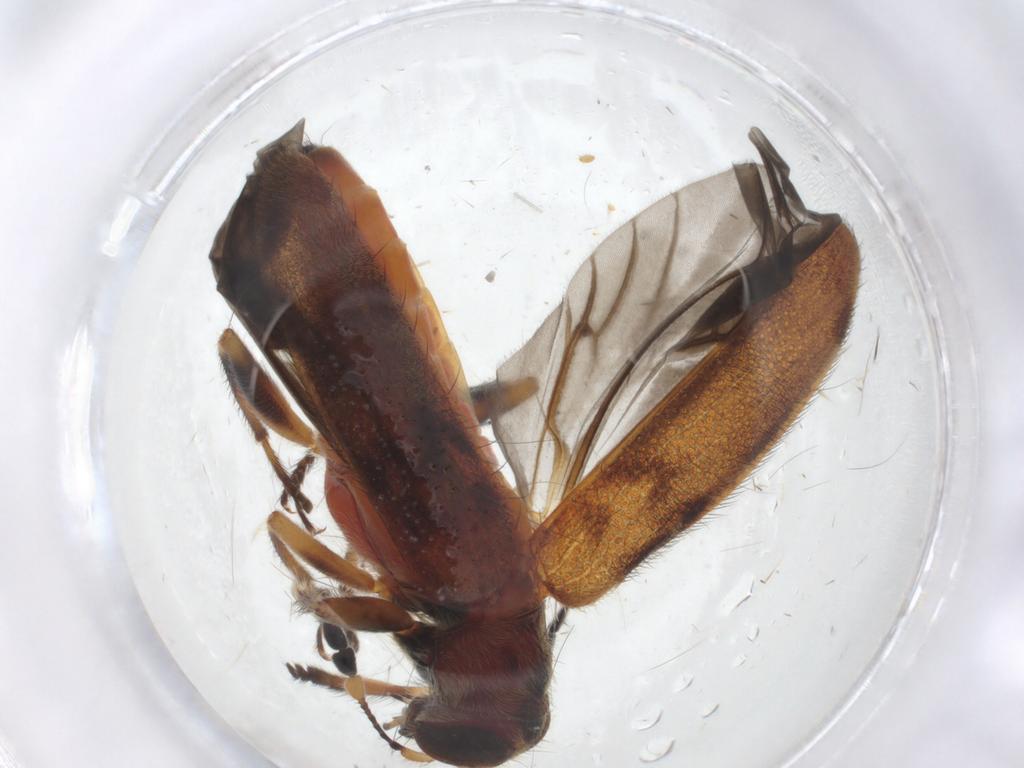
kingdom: Animalia
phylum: Arthropoda
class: Insecta
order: Coleoptera
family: Cleridae
